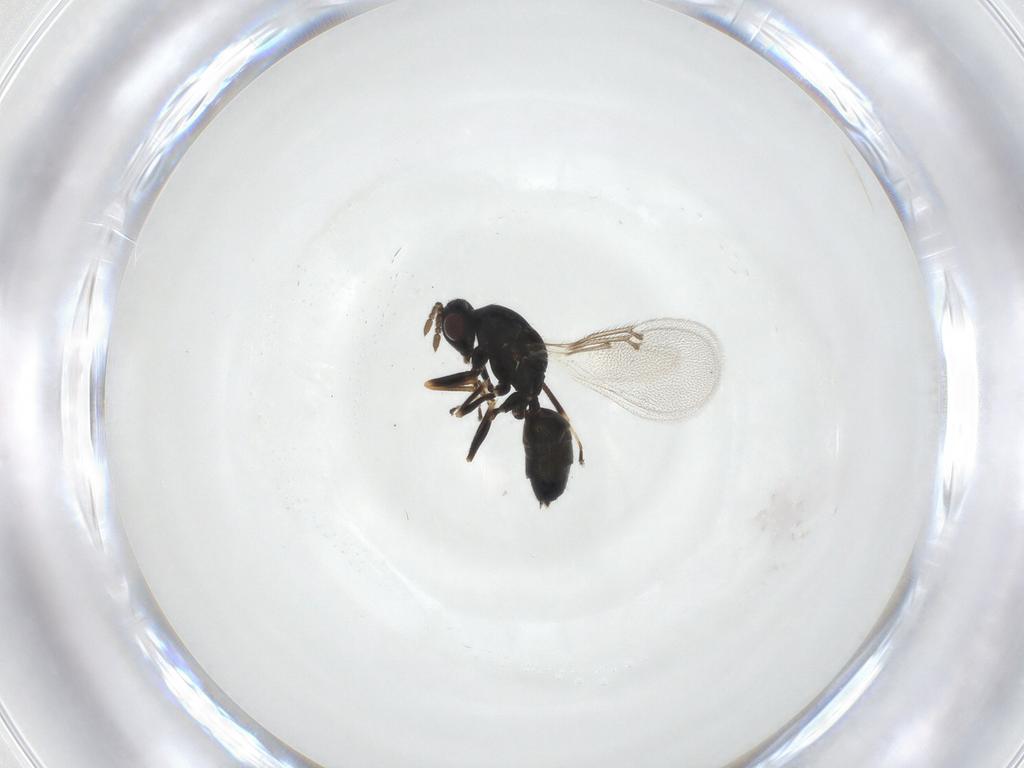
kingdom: Animalia
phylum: Arthropoda
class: Insecta
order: Hymenoptera
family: Eulophidae
